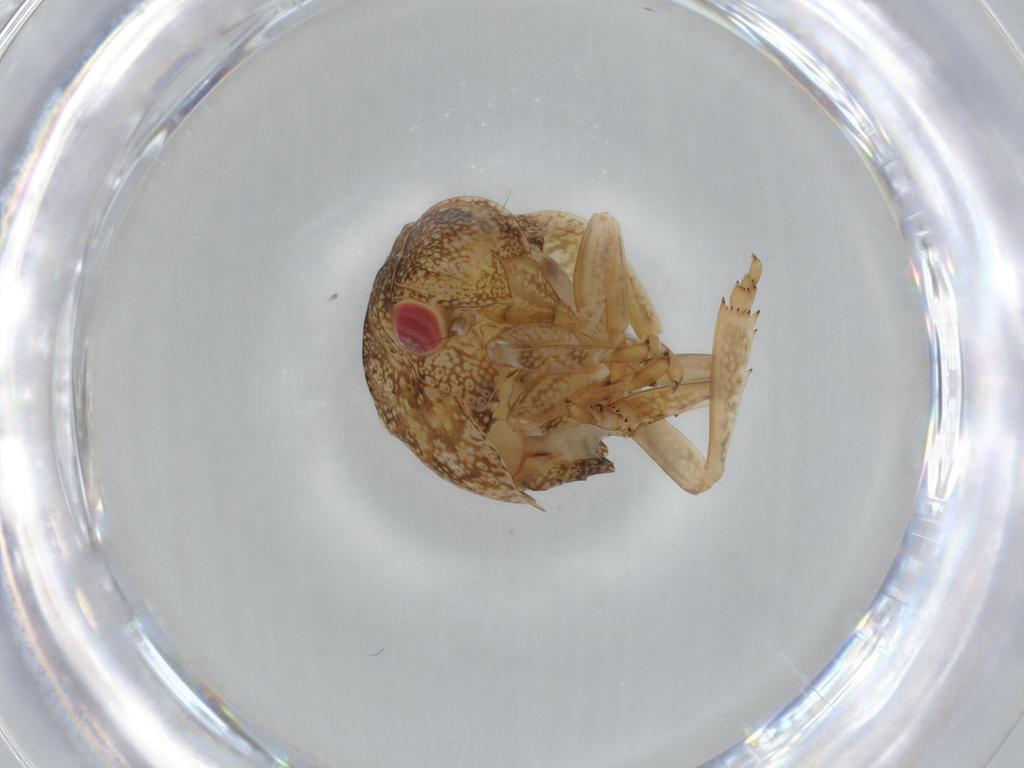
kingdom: Animalia
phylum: Arthropoda
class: Insecta
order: Hemiptera
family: Acanaloniidae
